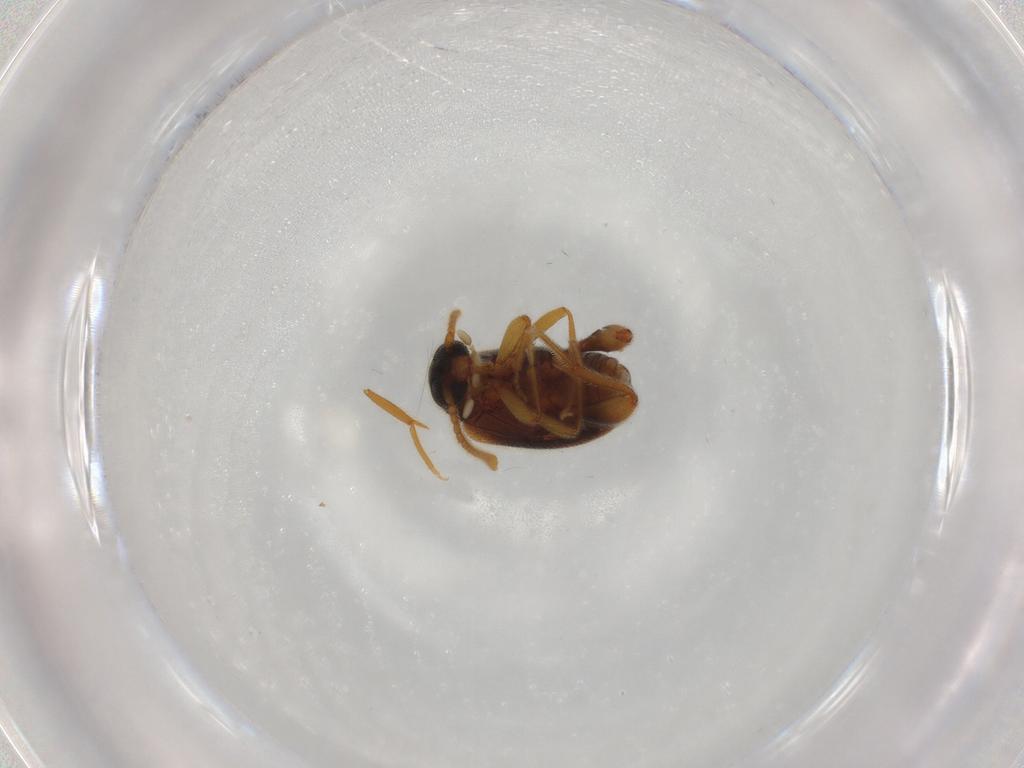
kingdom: Animalia
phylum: Arthropoda
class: Insecta
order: Coleoptera
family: Aderidae
